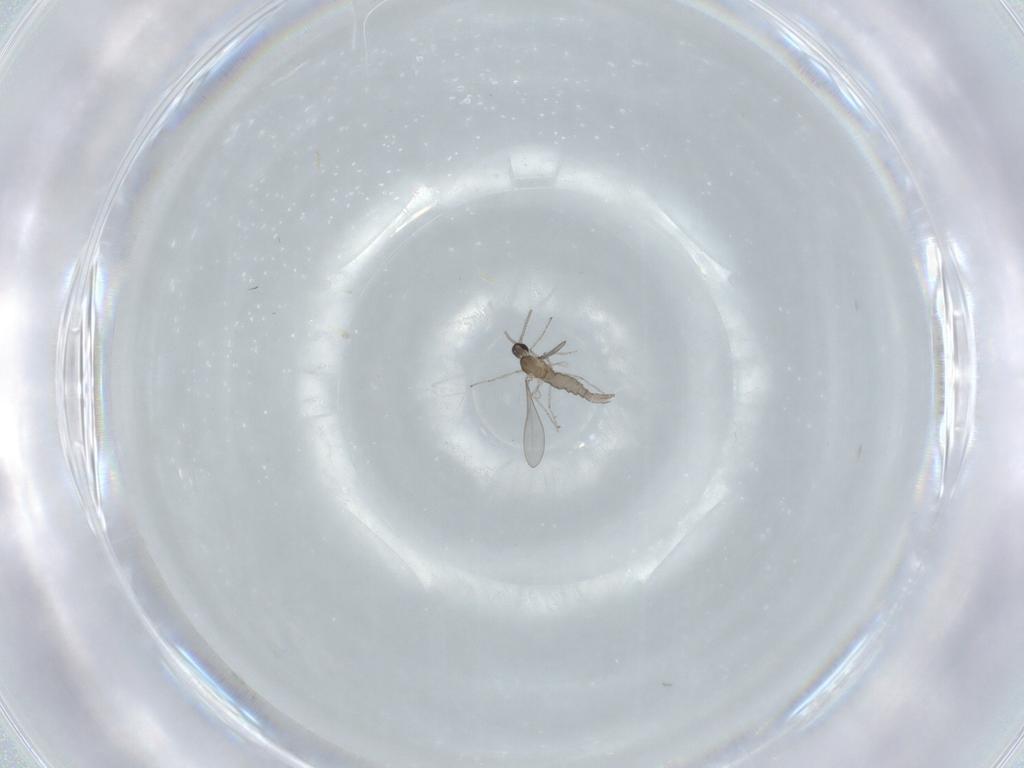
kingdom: Animalia
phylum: Arthropoda
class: Insecta
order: Diptera
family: Cecidomyiidae
